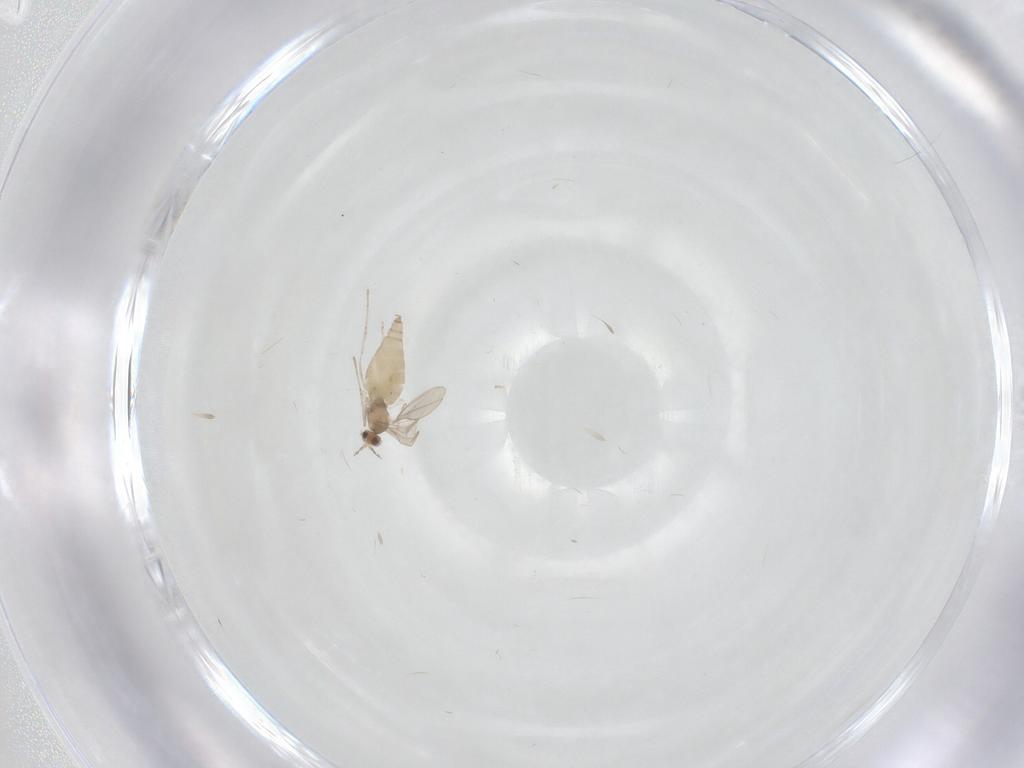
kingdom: Animalia
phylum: Arthropoda
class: Insecta
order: Diptera
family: Cecidomyiidae
